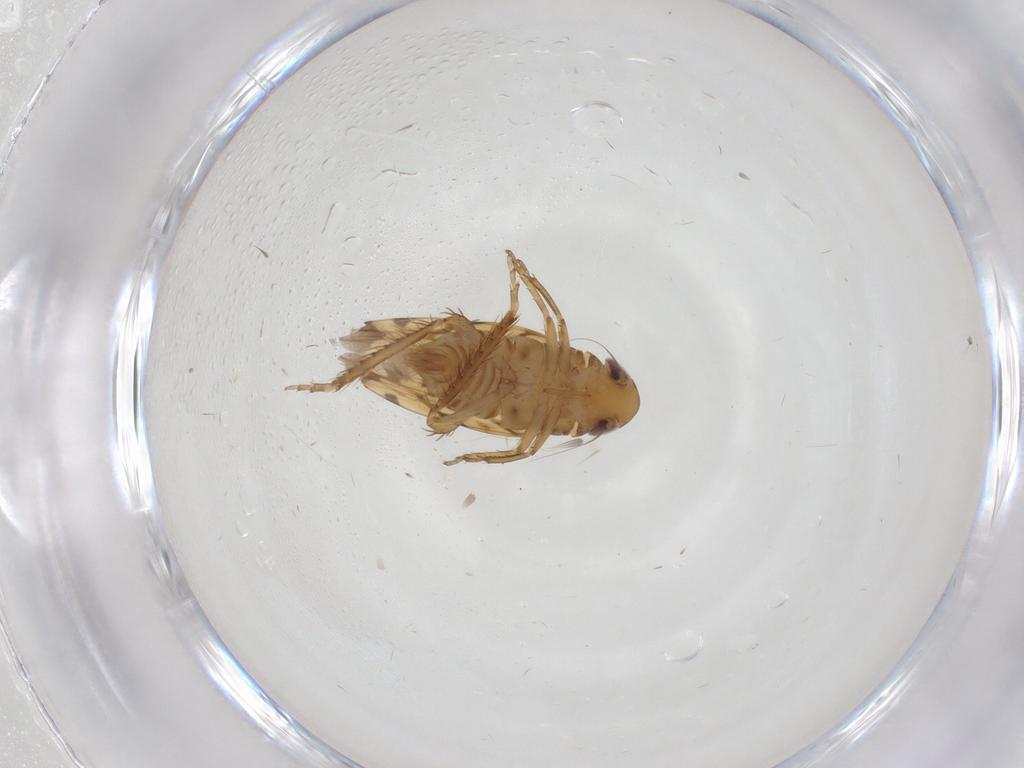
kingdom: Animalia
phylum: Arthropoda
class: Insecta
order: Hemiptera
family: Cicadellidae
